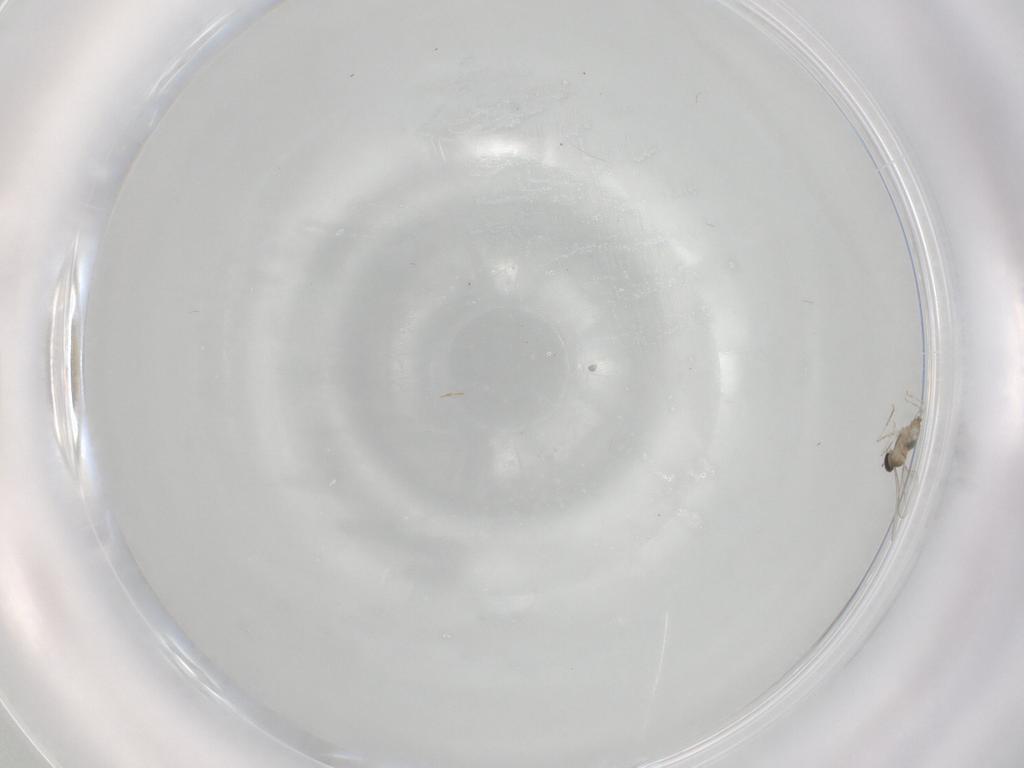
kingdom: Animalia
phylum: Arthropoda
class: Insecta
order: Diptera
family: Cecidomyiidae
